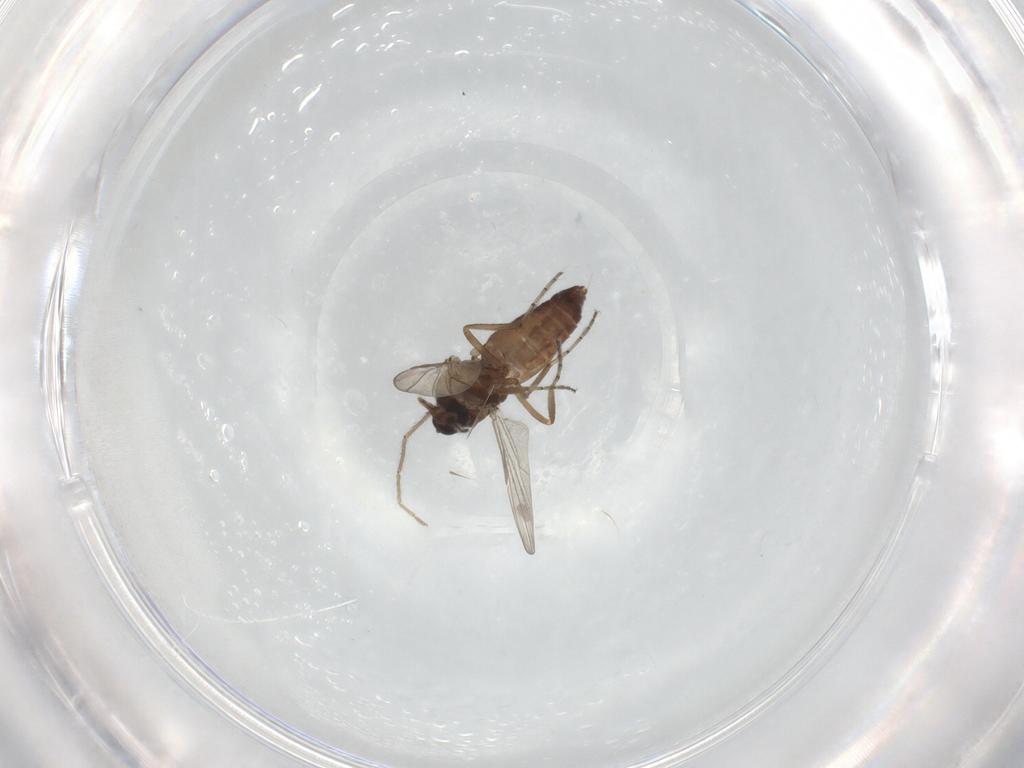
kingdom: Animalia
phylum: Arthropoda
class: Insecta
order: Diptera
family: Ceratopogonidae
